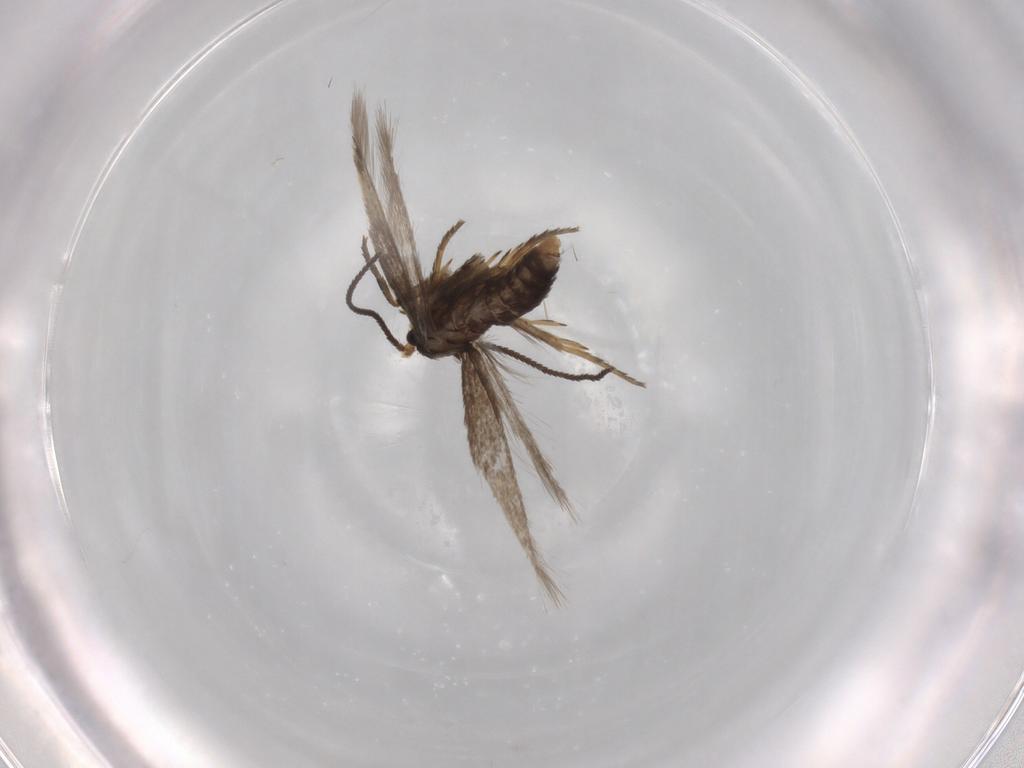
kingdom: Animalia
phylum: Arthropoda
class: Insecta
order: Lepidoptera
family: Nepticulidae
